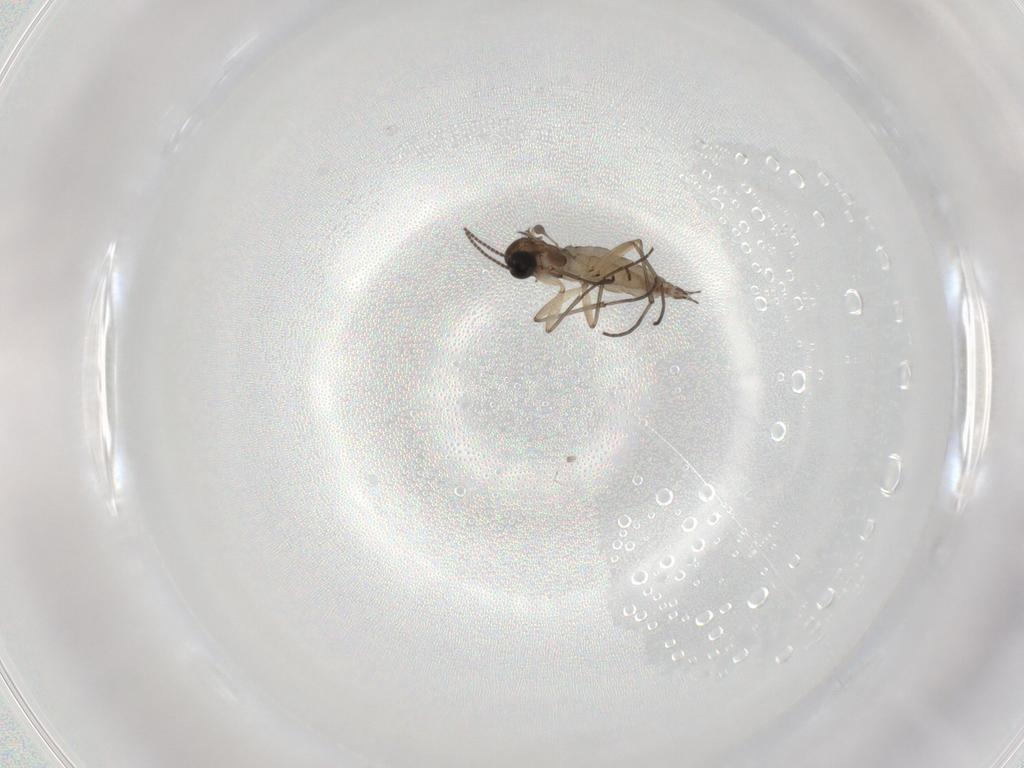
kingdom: Animalia
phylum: Arthropoda
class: Insecta
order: Diptera
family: Sciaridae
